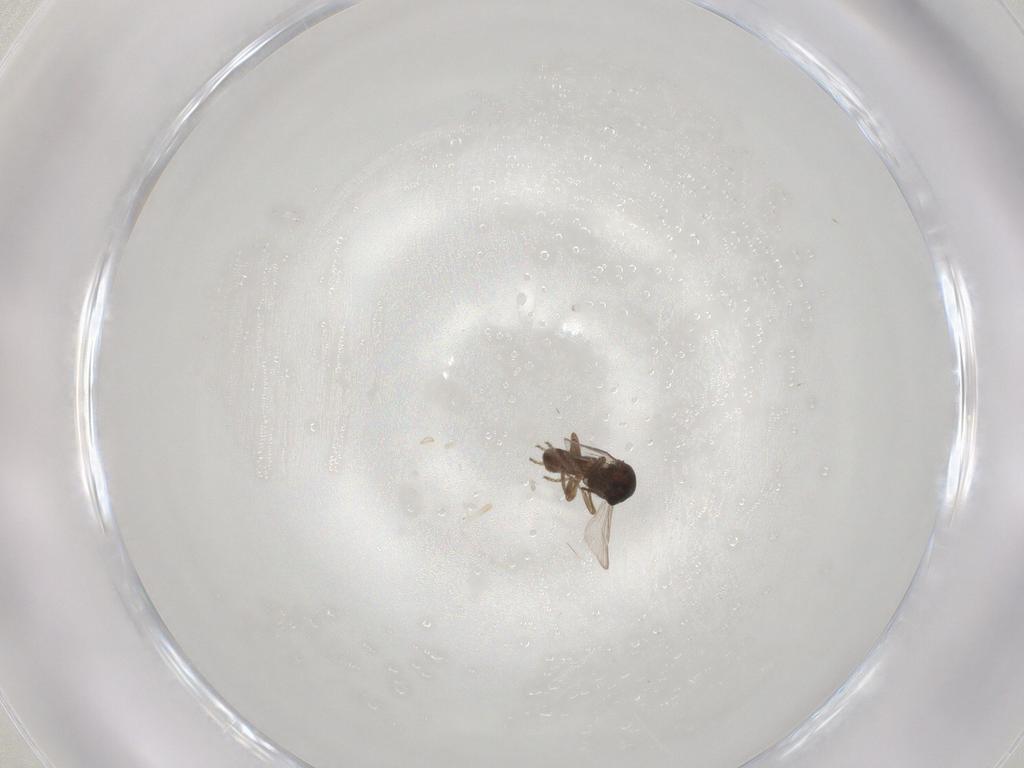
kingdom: Animalia
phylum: Arthropoda
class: Insecta
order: Diptera
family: Ceratopogonidae
